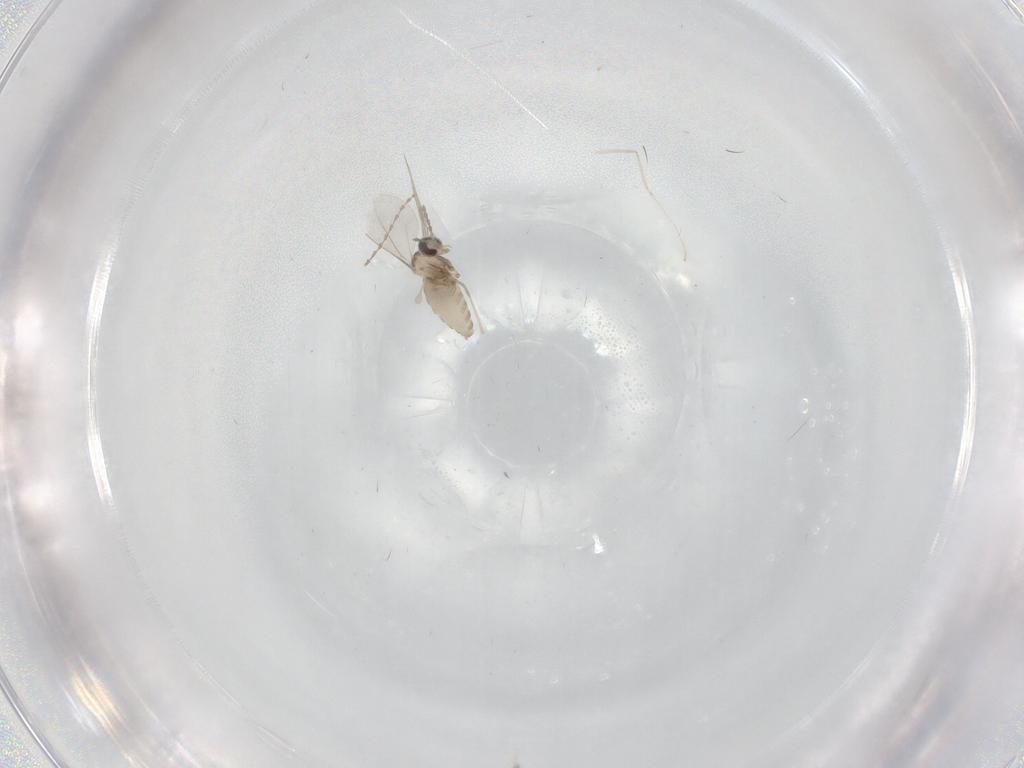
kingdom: Animalia
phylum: Arthropoda
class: Insecta
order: Diptera
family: Cecidomyiidae
